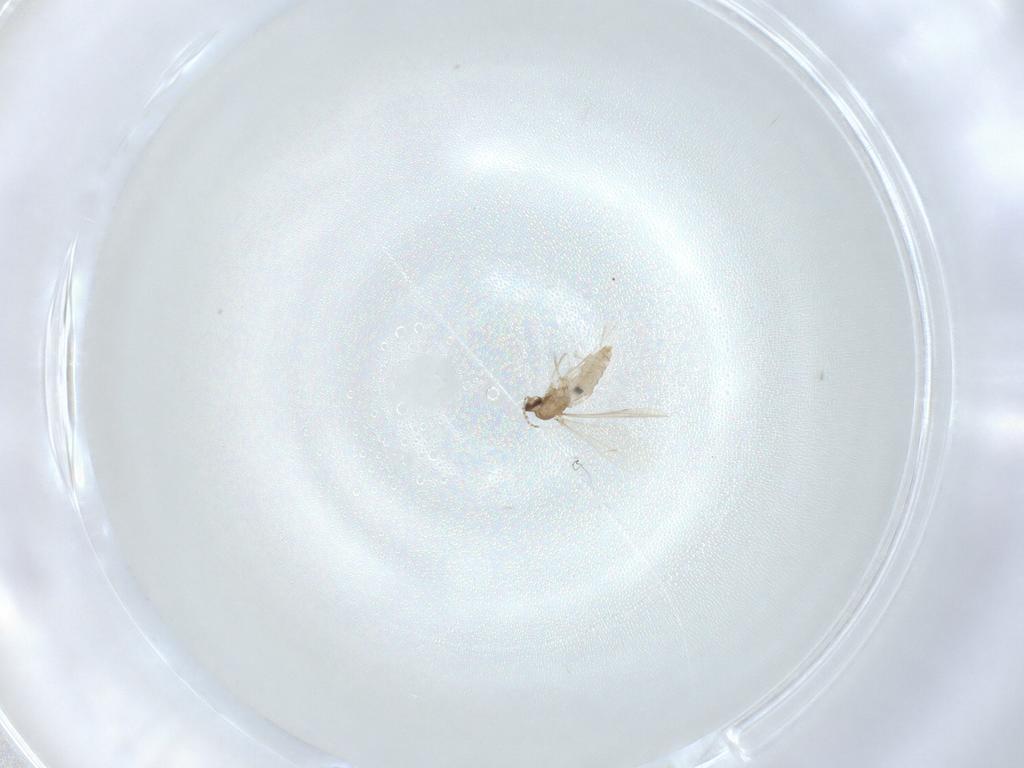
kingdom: Animalia
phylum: Arthropoda
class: Insecta
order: Diptera
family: Cecidomyiidae
